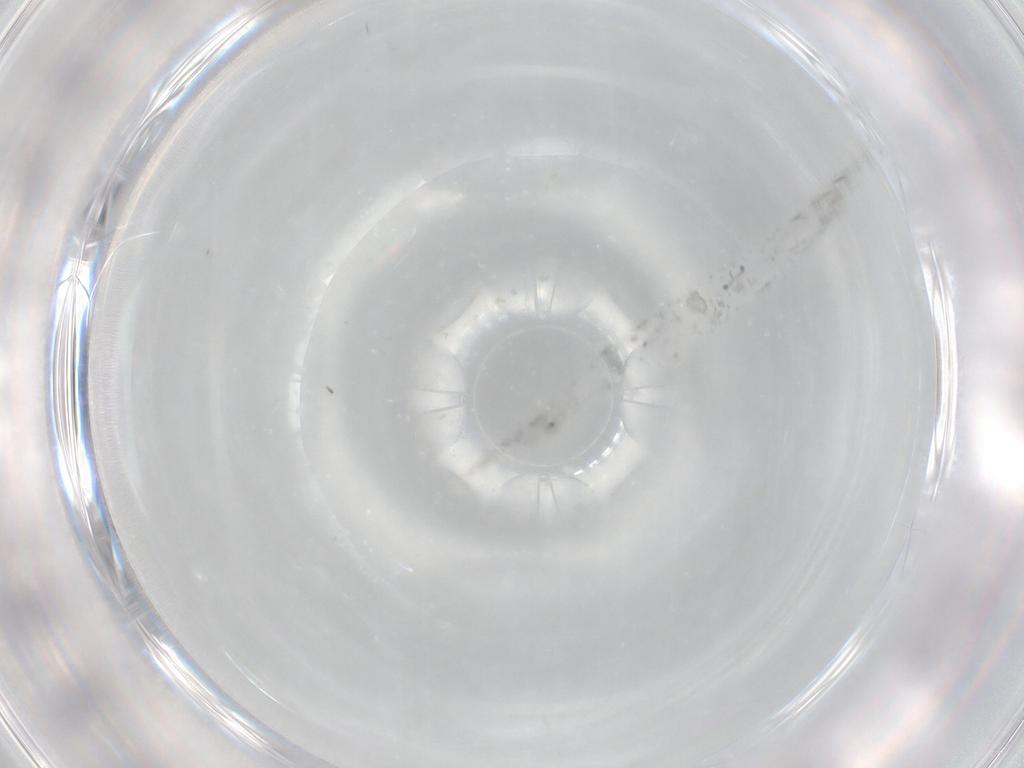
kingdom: Animalia
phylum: Arthropoda
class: Insecta
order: Diptera
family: Cecidomyiidae
